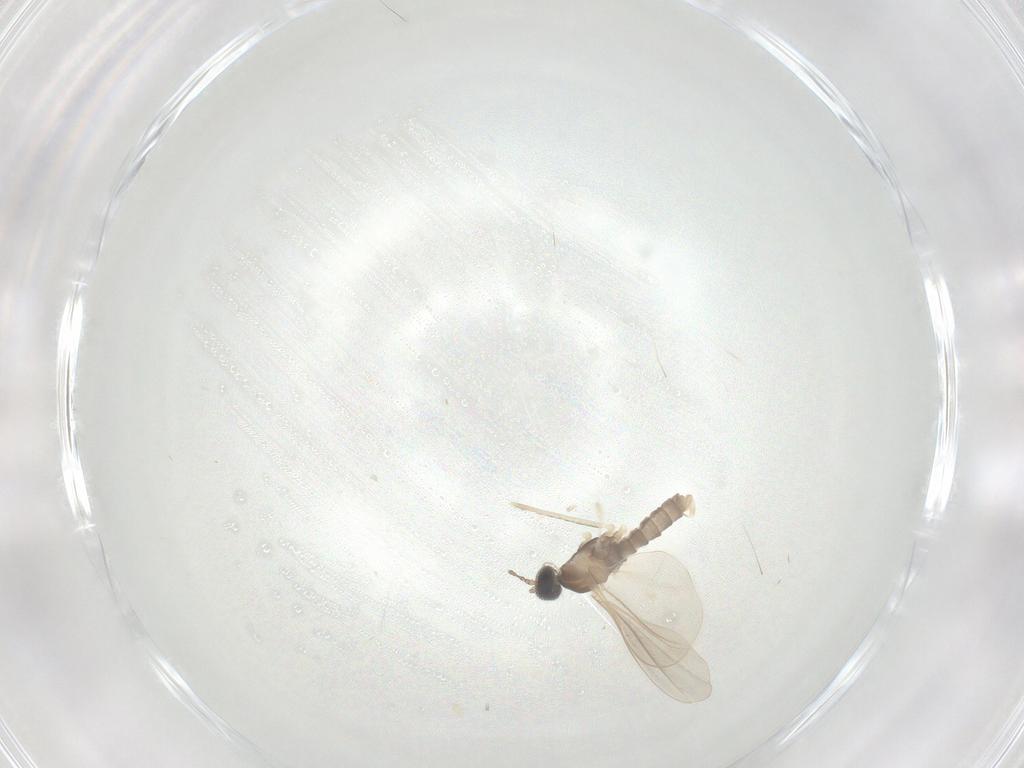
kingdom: Animalia
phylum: Arthropoda
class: Insecta
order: Diptera
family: Cecidomyiidae
